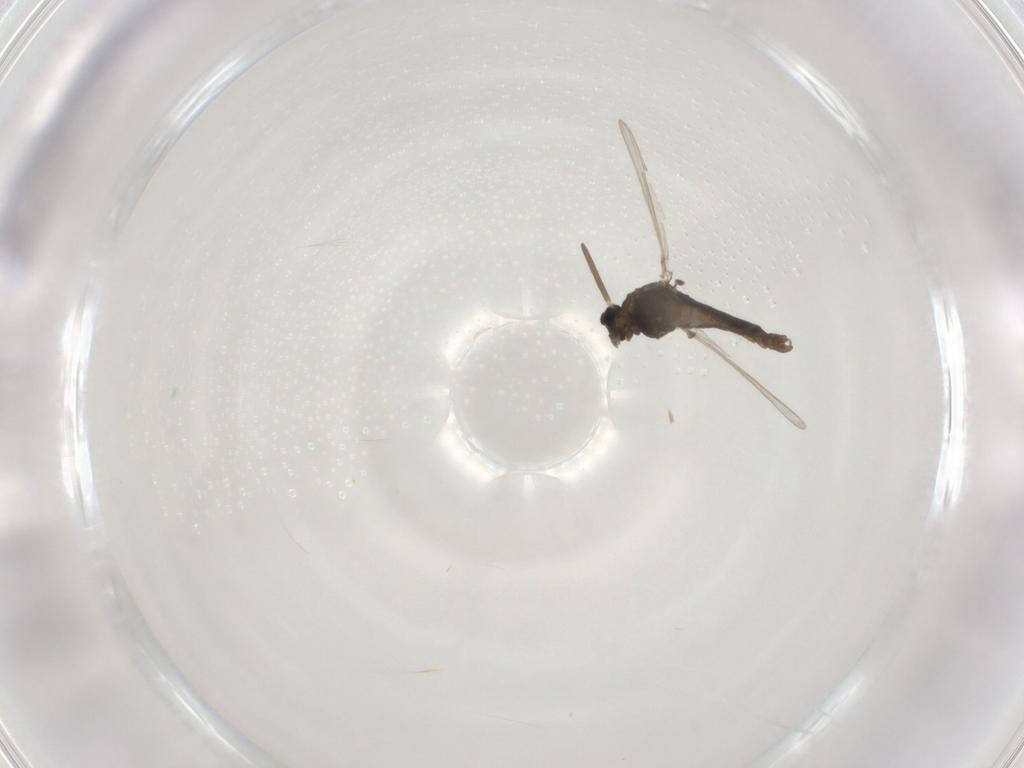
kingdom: Animalia
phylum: Arthropoda
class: Insecta
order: Diptera
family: Chironomidae
